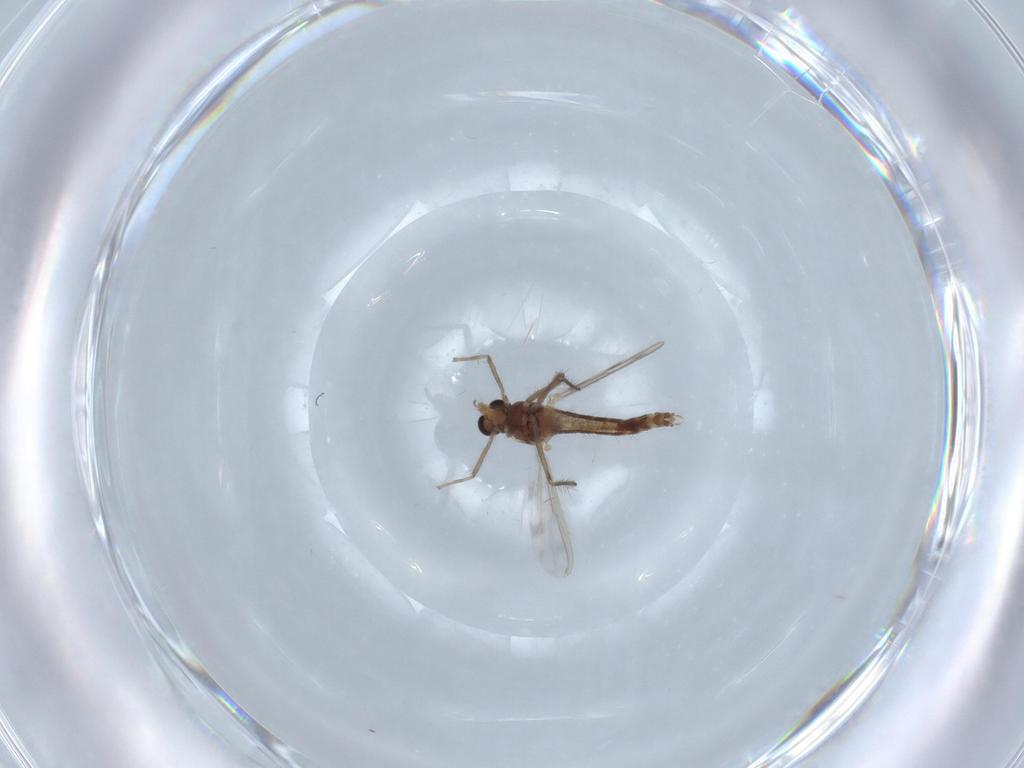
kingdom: Animalia
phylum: Arthropoda
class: Insecta
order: Diptera
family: Chironomidae
